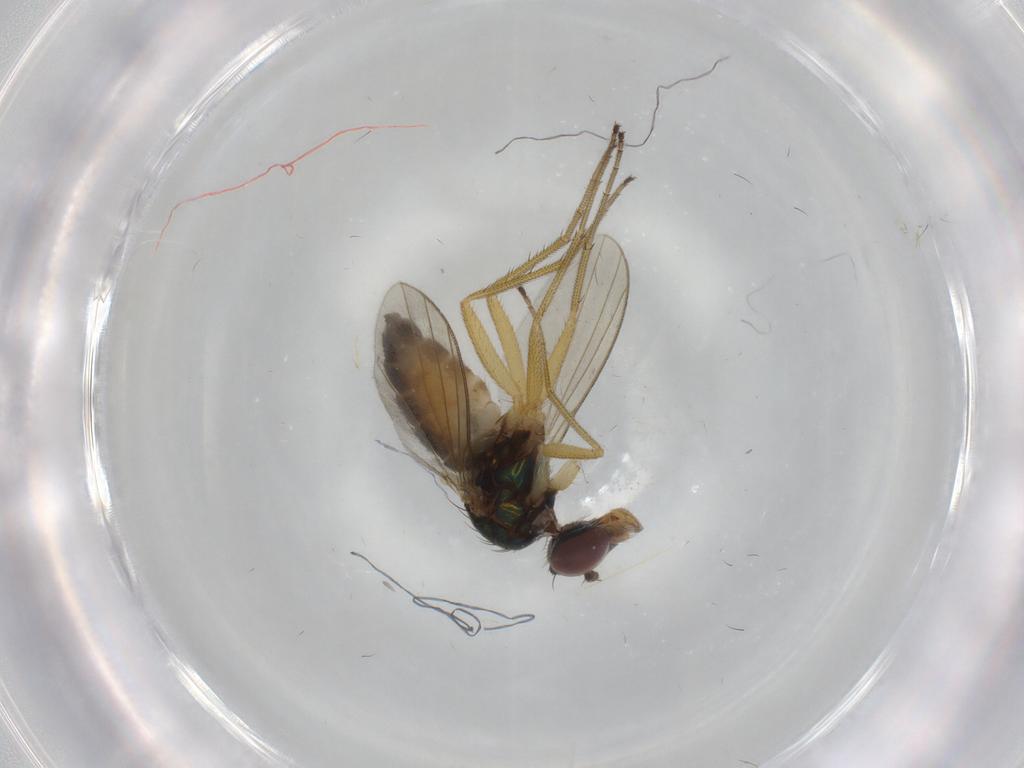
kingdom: Animalia
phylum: Arthropoda
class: Insecta
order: Diptera
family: Dolichopodidae
